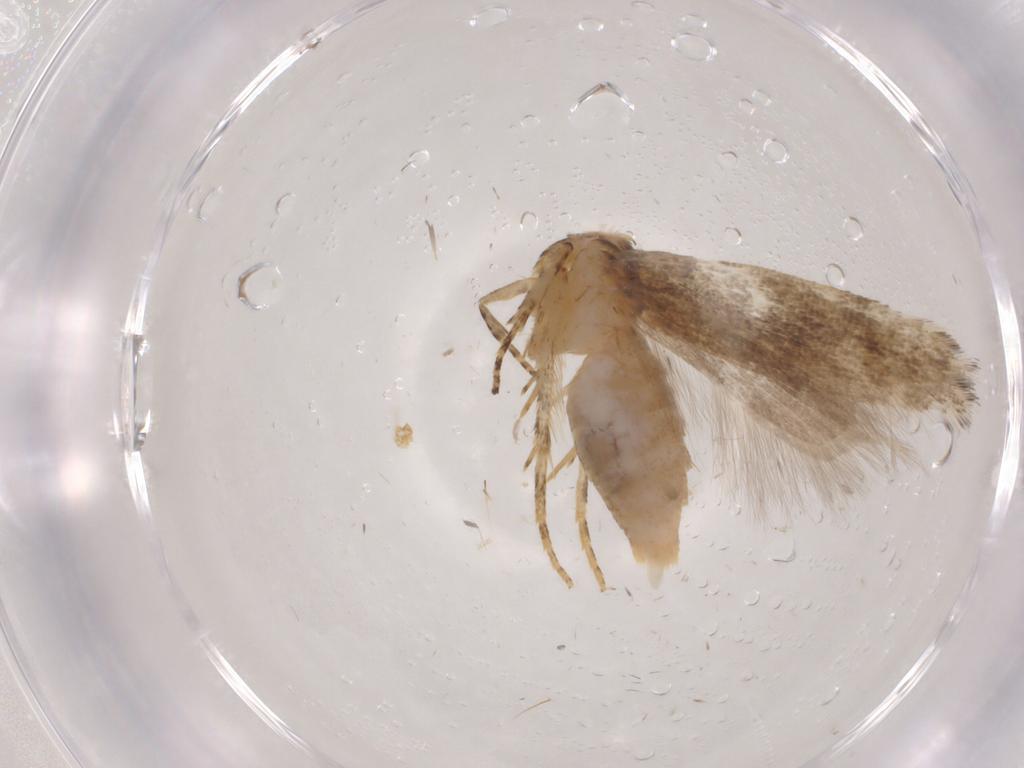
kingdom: Animalia
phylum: Arthropoda
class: Insecta
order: Lepidoptera
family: Gelechiidae
